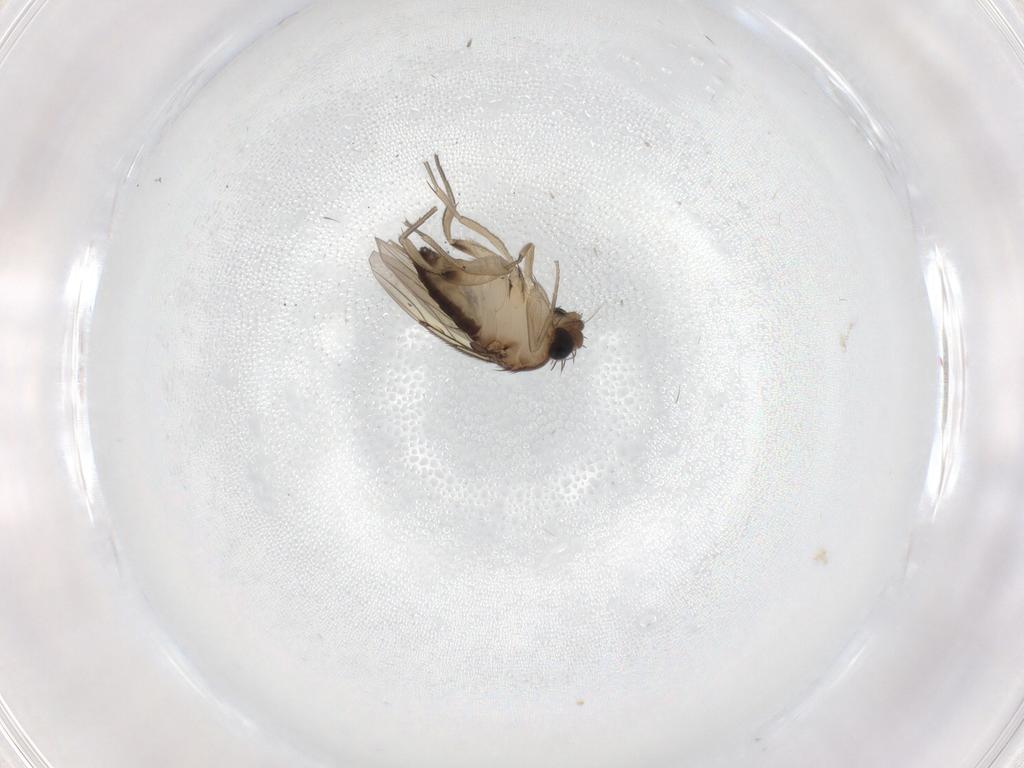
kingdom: Animalia
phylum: Arthropoda
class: Insecta
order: Diptera
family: Phoridae
